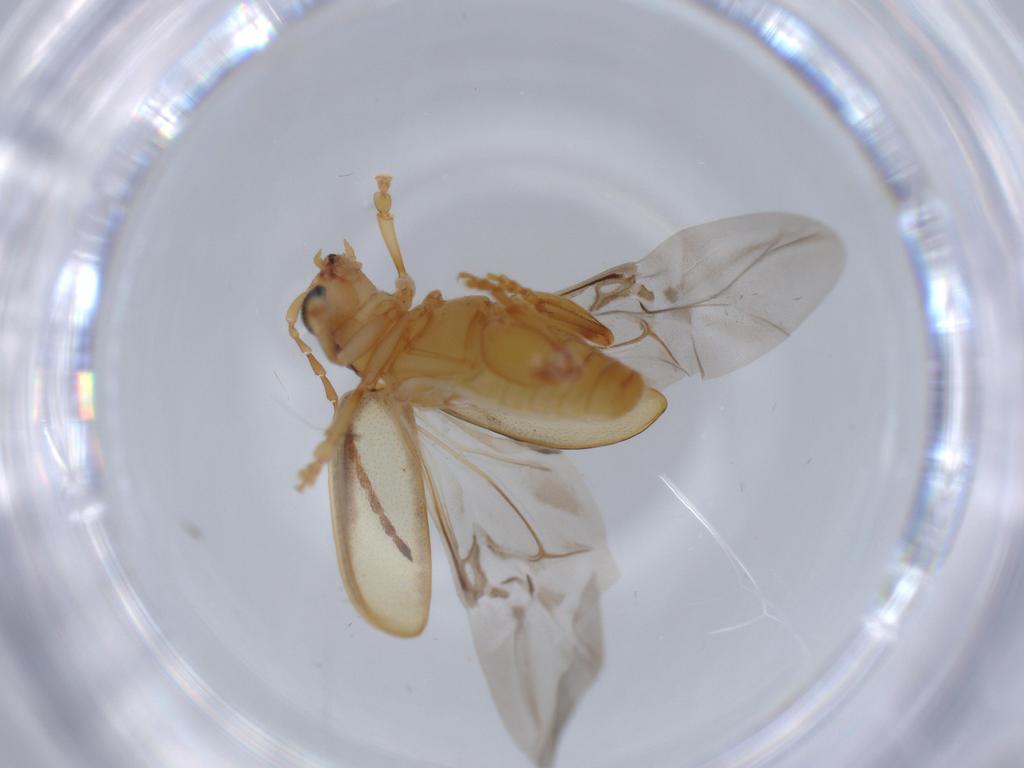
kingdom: Animalia
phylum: Arthropoda
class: Insecta
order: Coleoptera
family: Chrysomelidae
